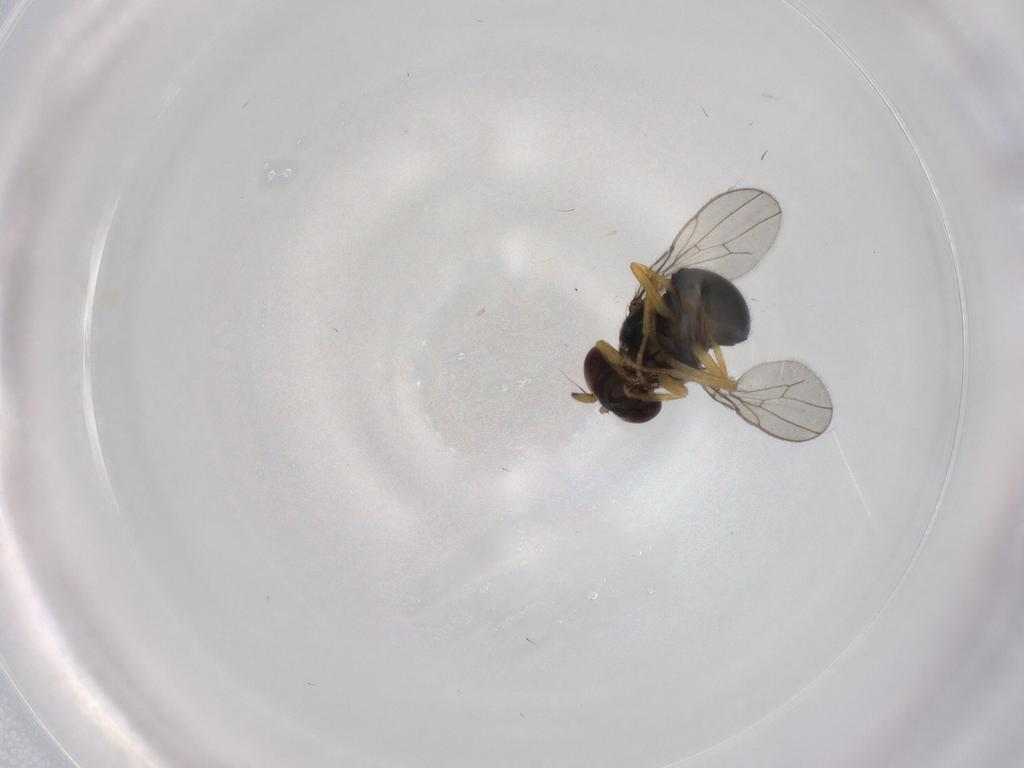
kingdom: Animalia
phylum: Arthropoda
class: Insecta
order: Diptera
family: Ephydridae
